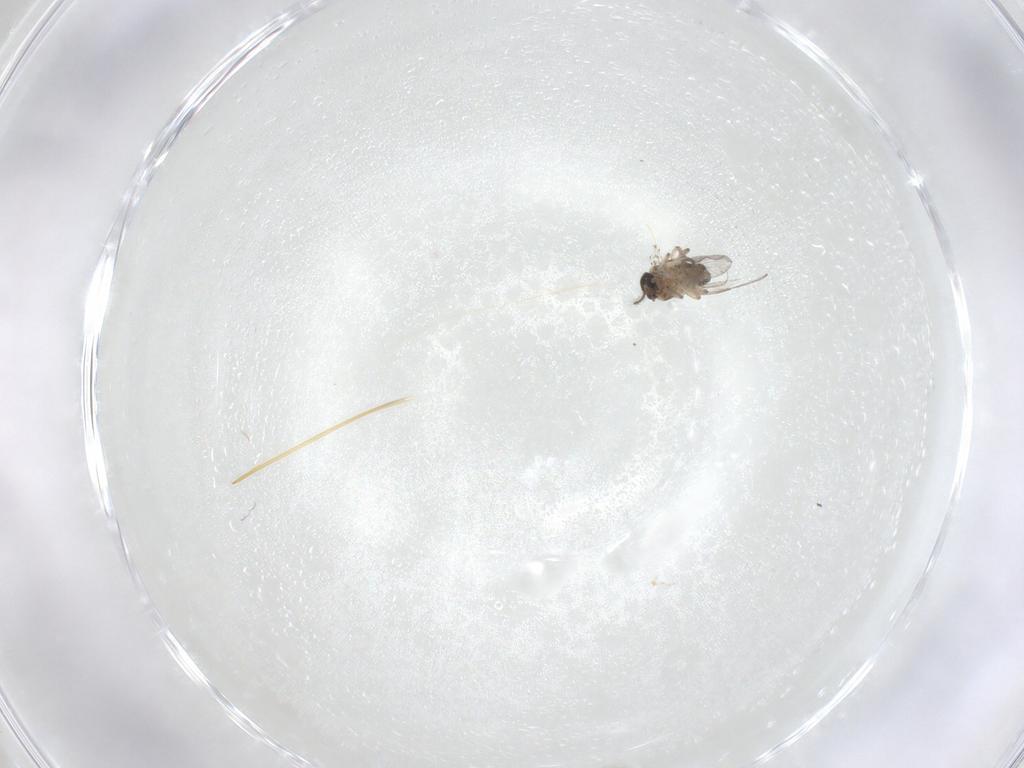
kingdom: Animalia
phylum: Arthropoda
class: Insecta
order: Diptera
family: Ceratopogonidae
